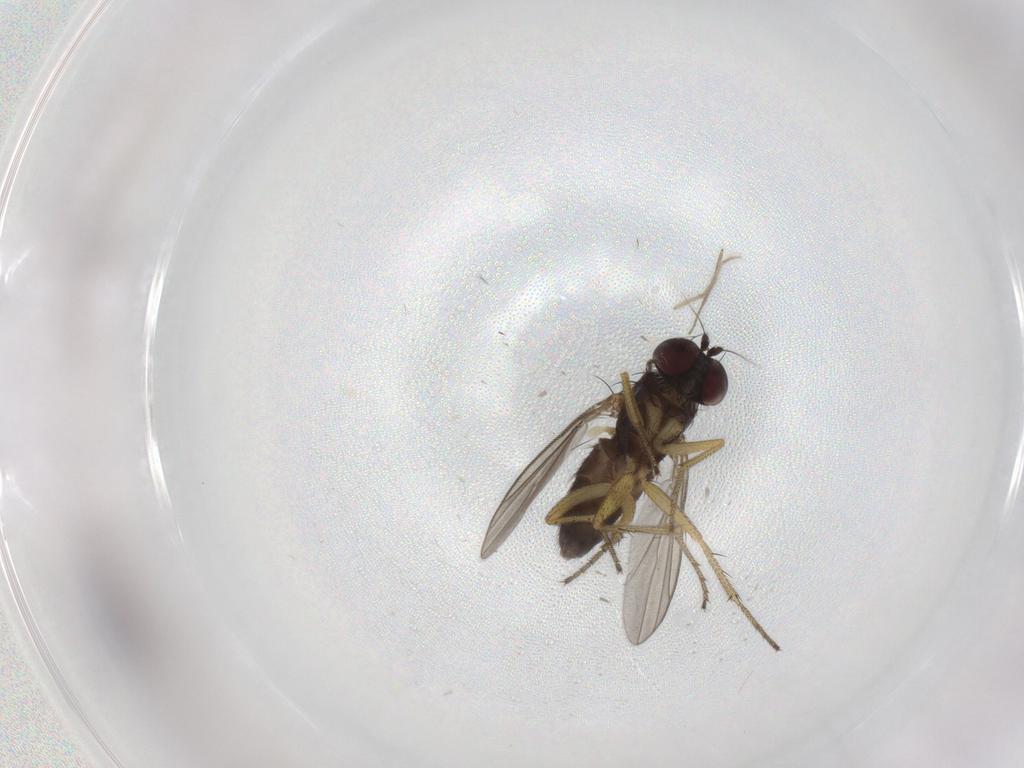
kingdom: Animalia
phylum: Arthropoda
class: Insecta
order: Diptera
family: Chironomidae
